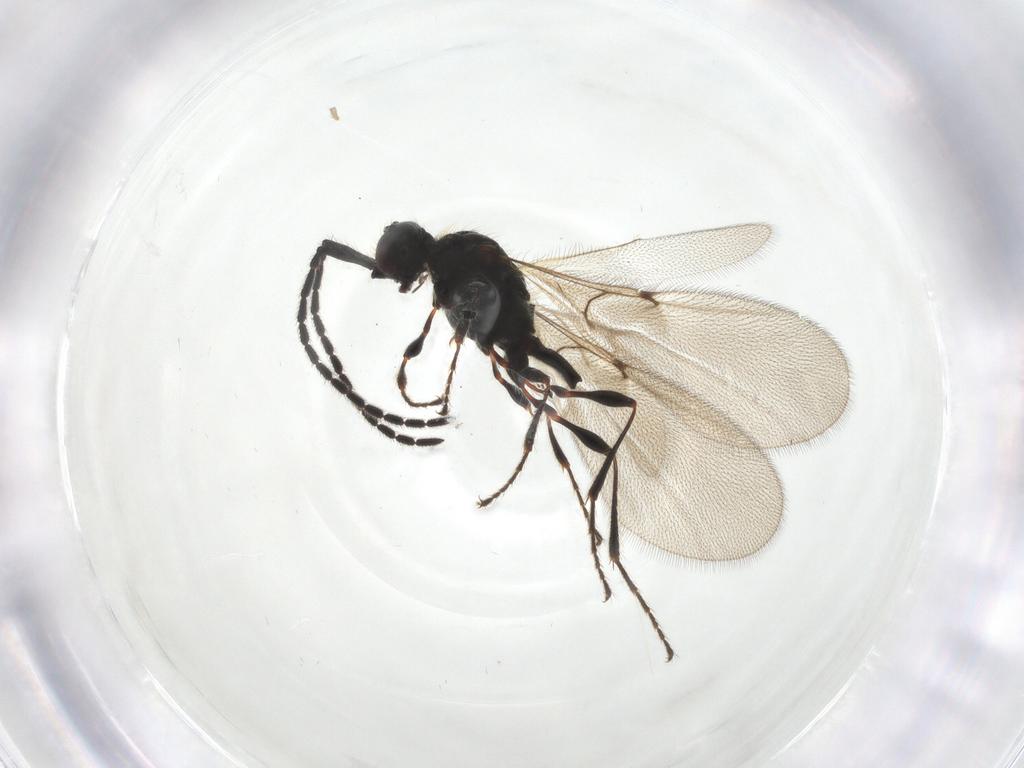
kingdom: Animalia
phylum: Arthropoda
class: Insecta
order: Hymenoptera
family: Diapriidae
